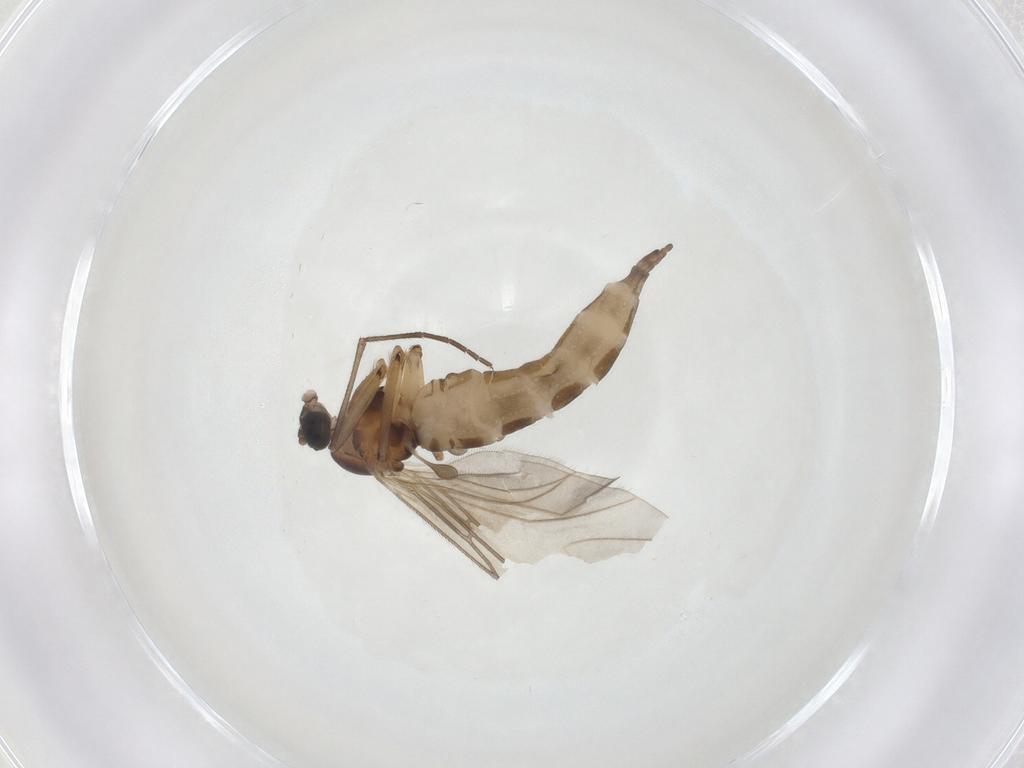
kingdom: Animalia
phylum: Arthropoda
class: Insecta
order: Diptera
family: Sciaridae
